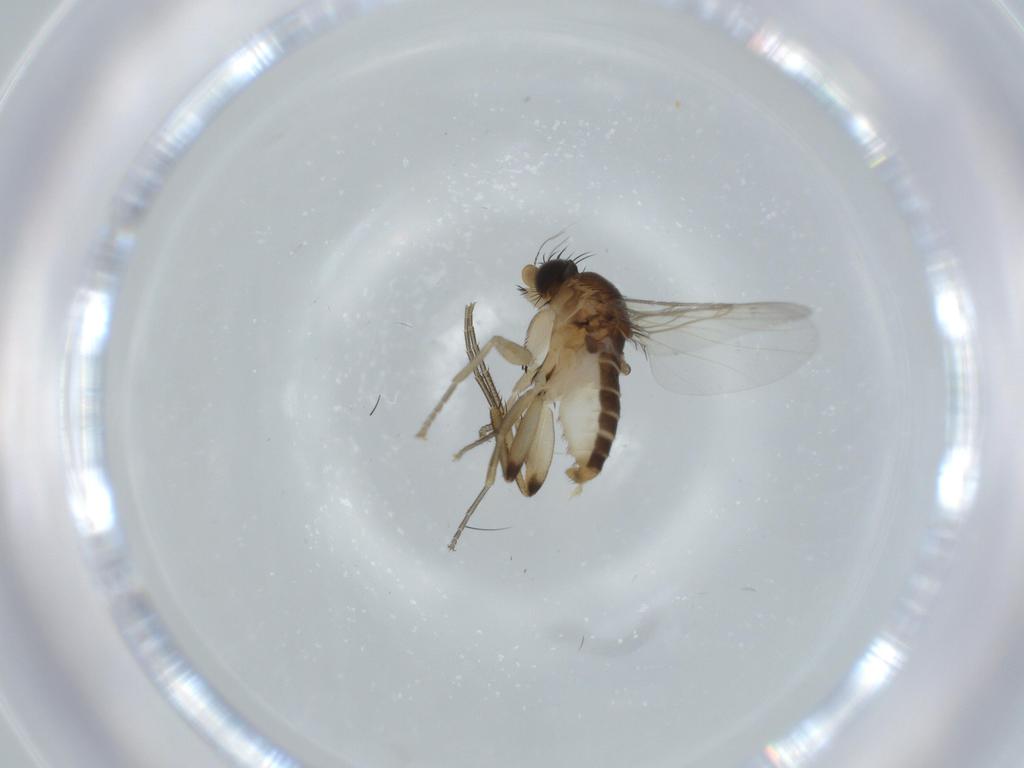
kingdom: Animalia
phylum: Arthropoda
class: Insecta
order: Diptera
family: Phoridae
